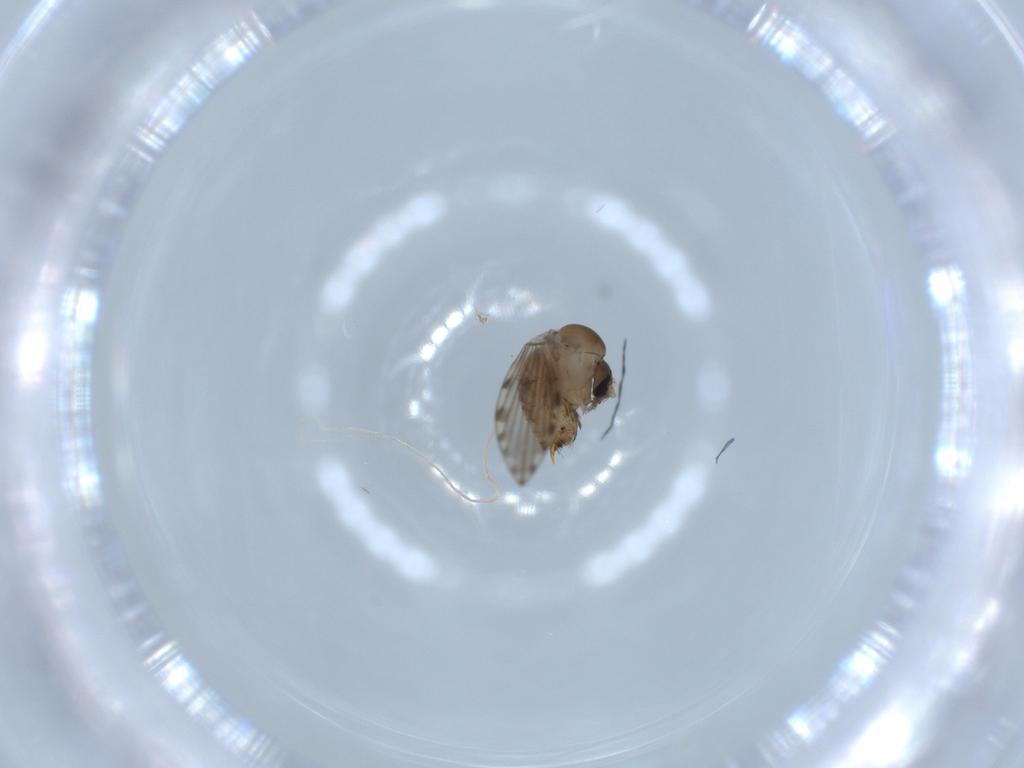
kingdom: Animalia
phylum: Arthropoda
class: Insecta
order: Diptera
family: Sciaridae
